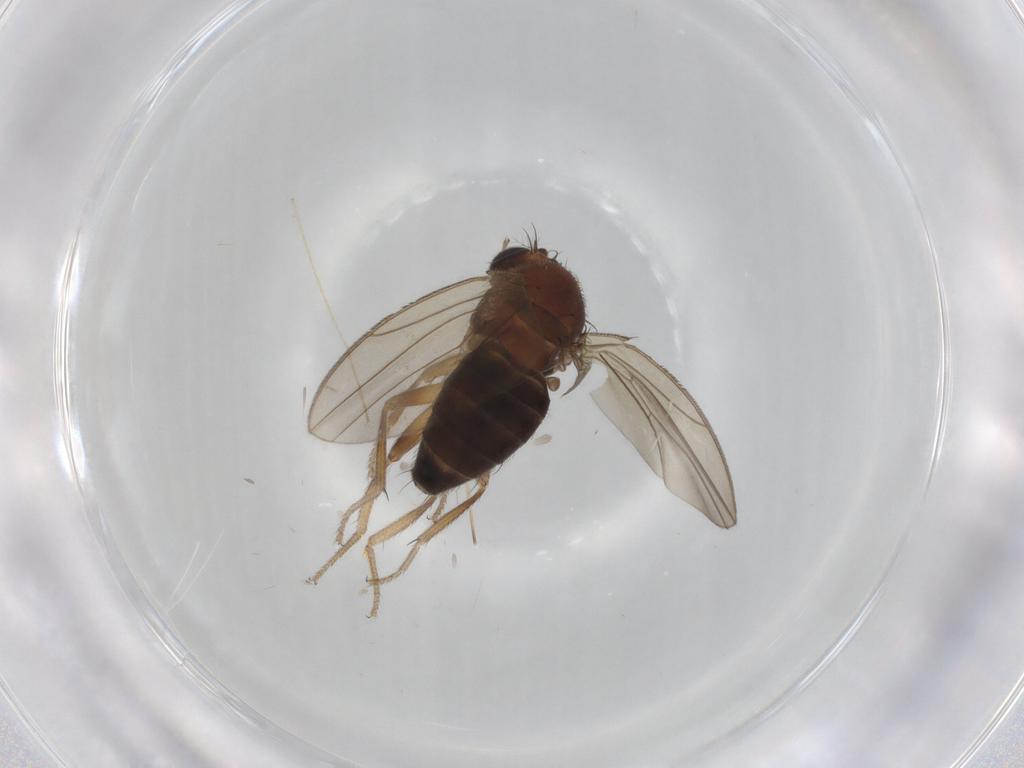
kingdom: Animalia
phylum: Arthropoda
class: Insecta
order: Diptera
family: Drosophilidae
